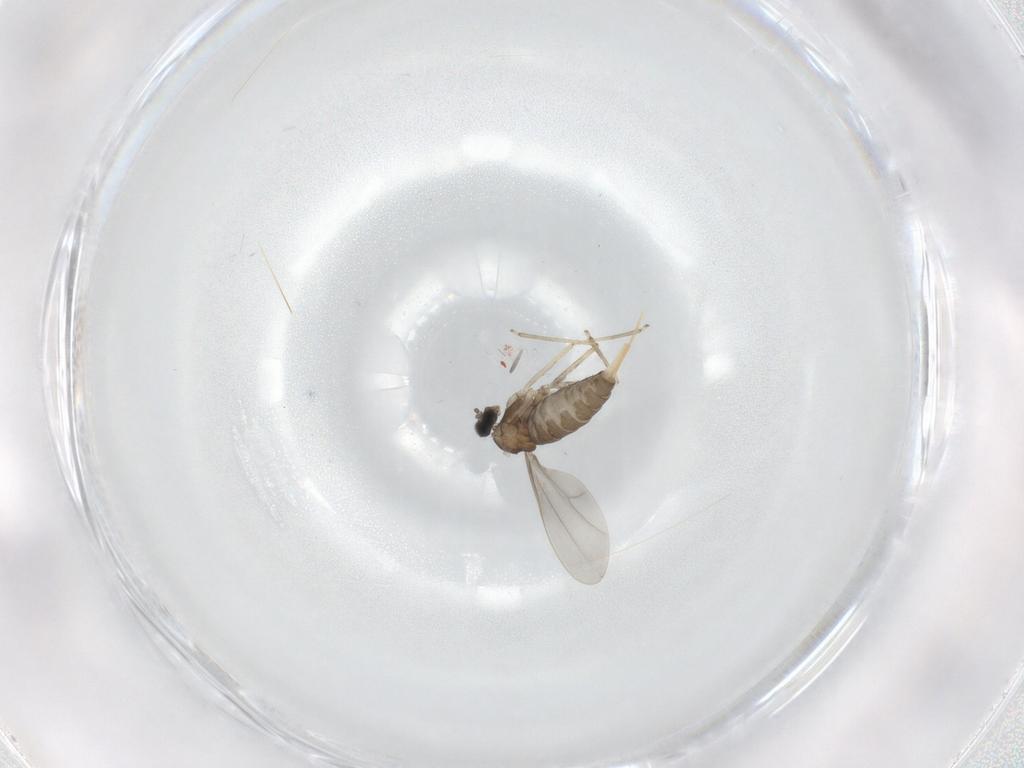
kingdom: Animalia
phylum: Arthropoda
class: Insecta
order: Diptera
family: Cecidomyiidae
